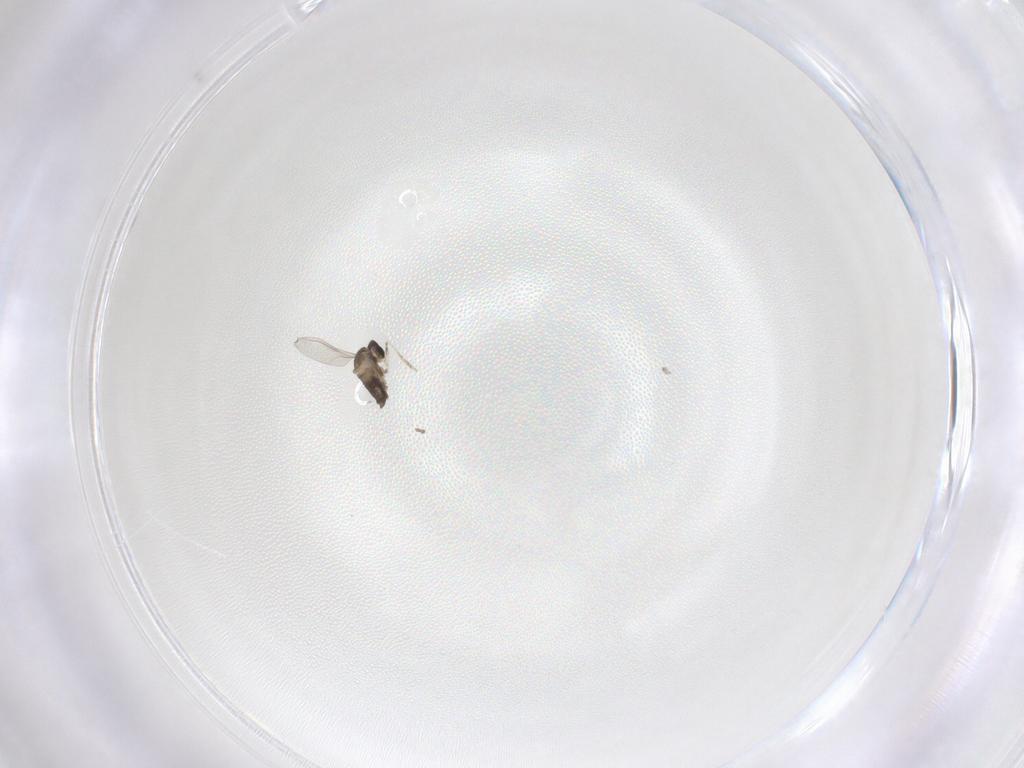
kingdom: Animalia
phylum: Arthropoda
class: Insecta
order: Diptera
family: Cecidomyiidae
